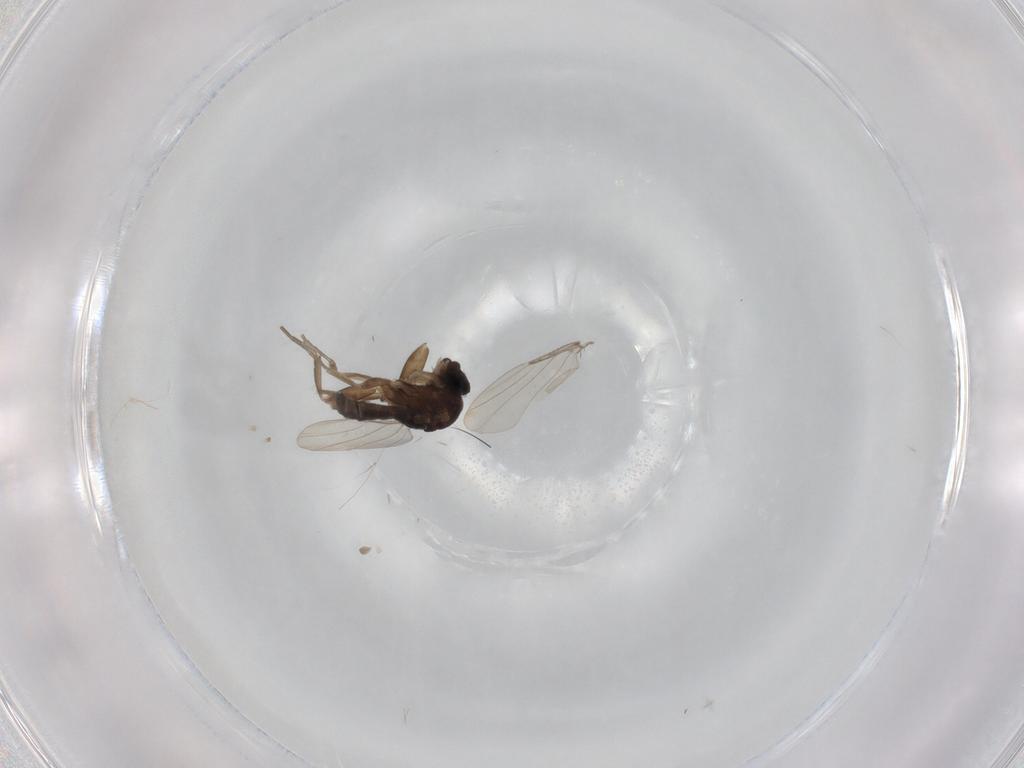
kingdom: Animalia
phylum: Arthropoda
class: Insecta
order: Diptera
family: Phoridae
